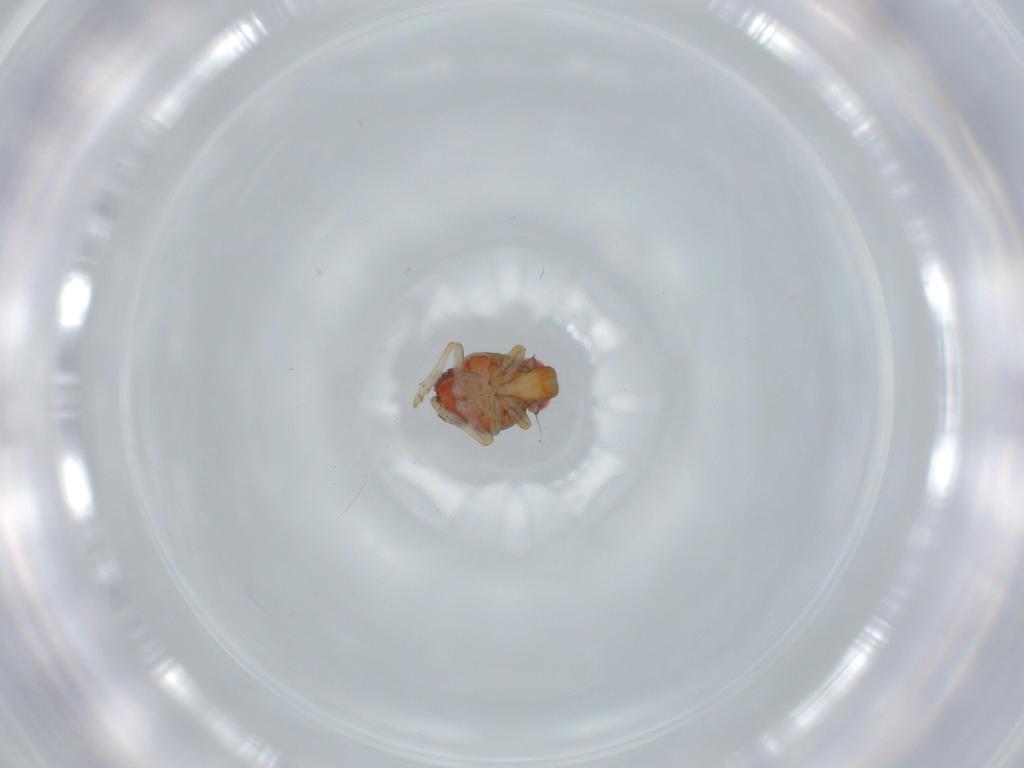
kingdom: Animalia
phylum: Arthropoda
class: Insecta
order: Hemiptera
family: Issidae
